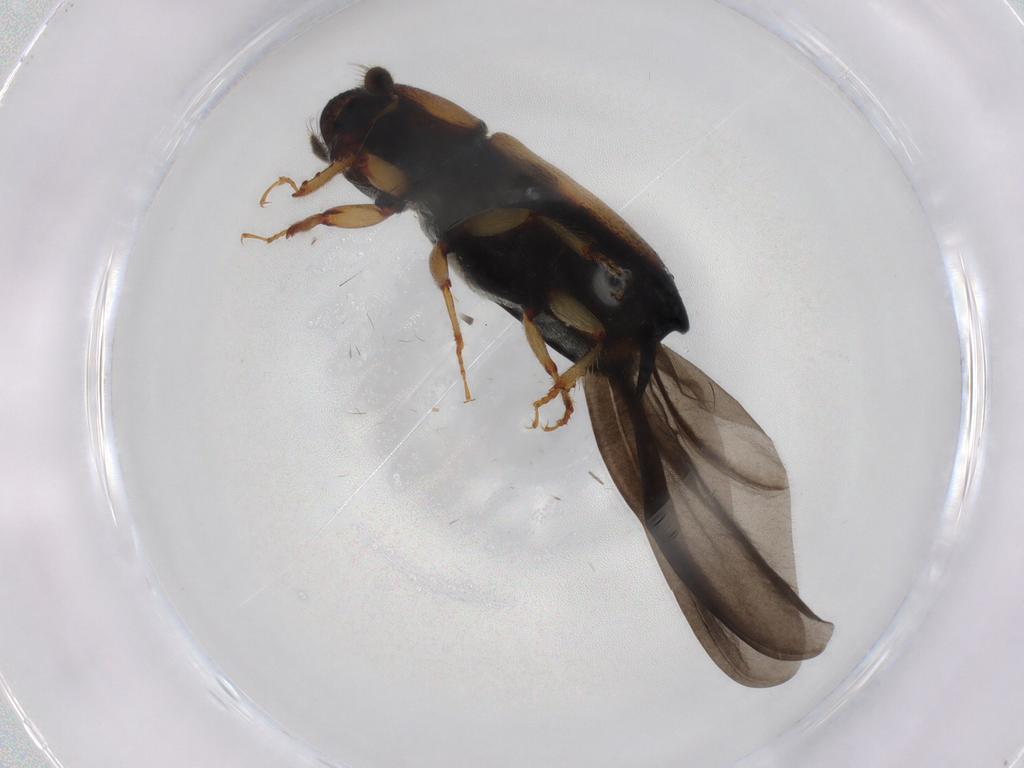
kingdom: Animalia
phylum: Arthropoda
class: Insecta
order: Coleoptera
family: Curculionidae
